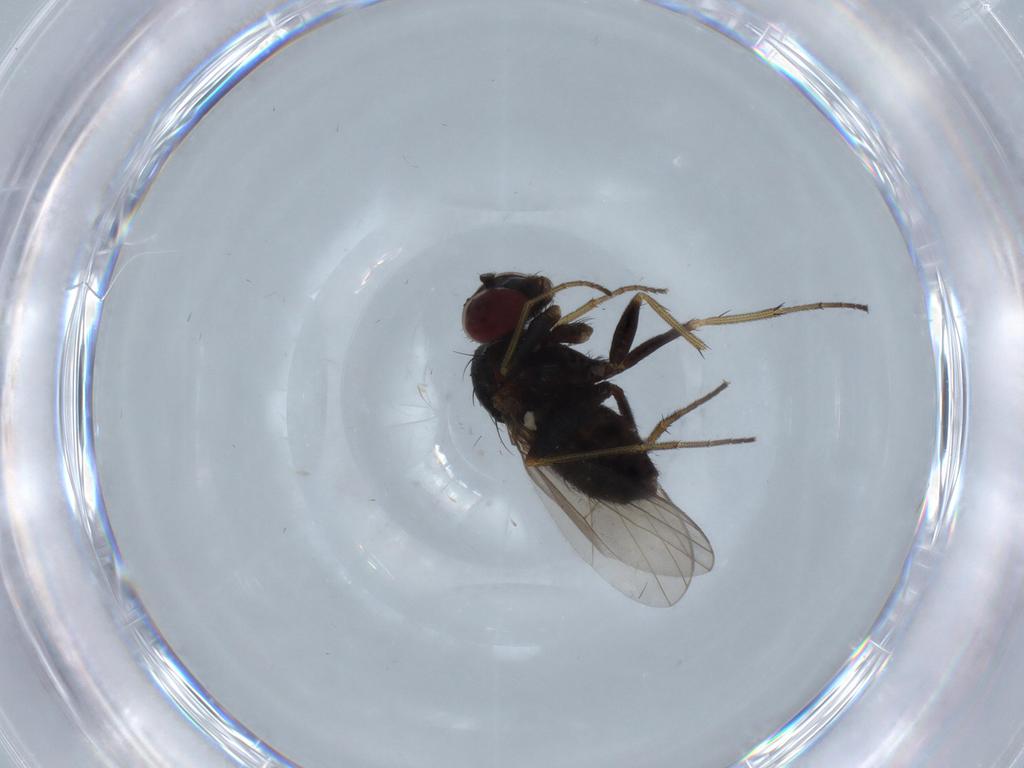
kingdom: Animalia
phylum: Arthropoda
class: Insecta
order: Diptera
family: Dolichopodidae
